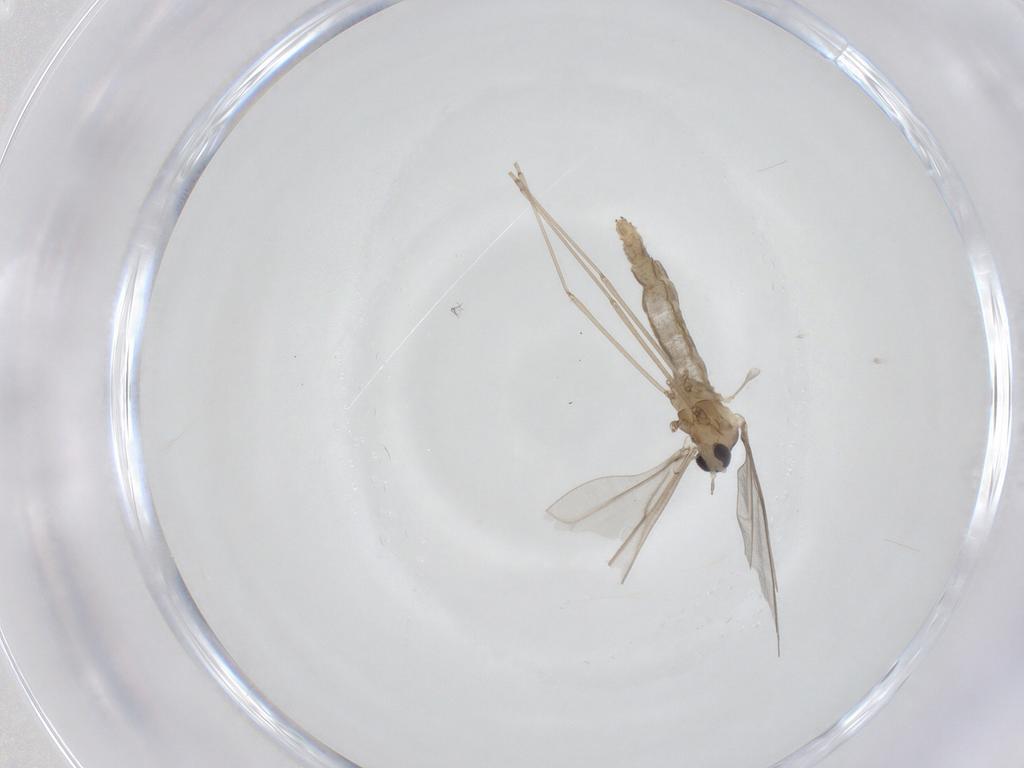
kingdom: Animalia
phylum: Arthropoda
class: Insecta
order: Diptera
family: Cecidomyiidae
